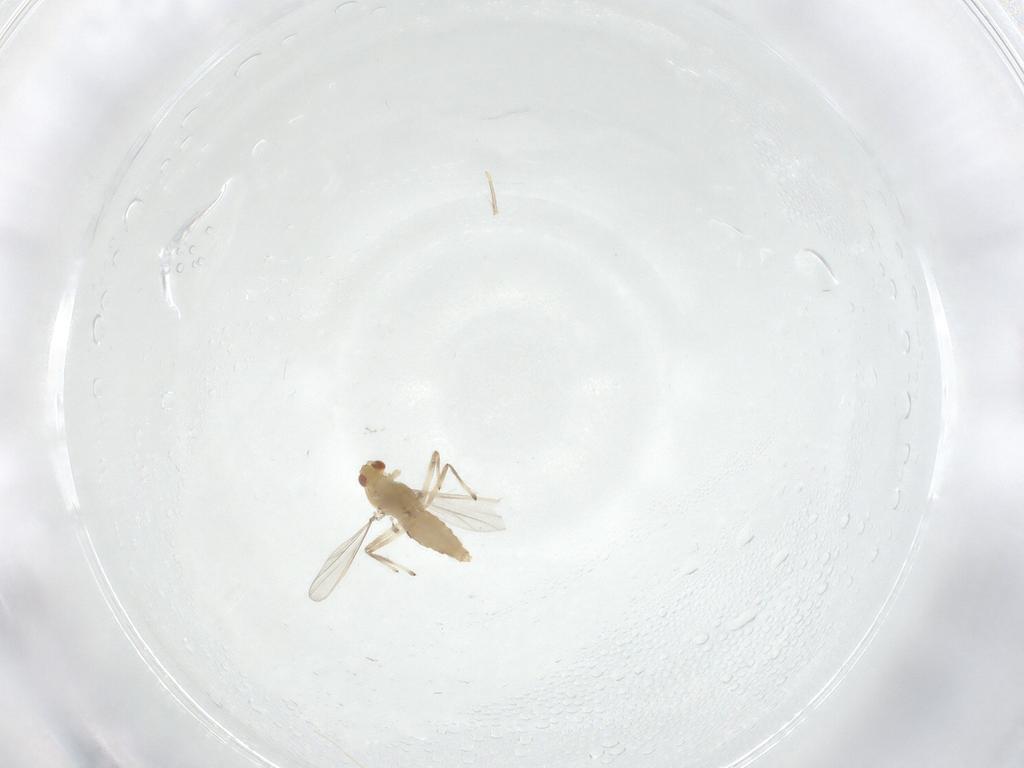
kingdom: Animalia
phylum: Arthropoda
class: Insecta
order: Diptera
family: Chironomidae
